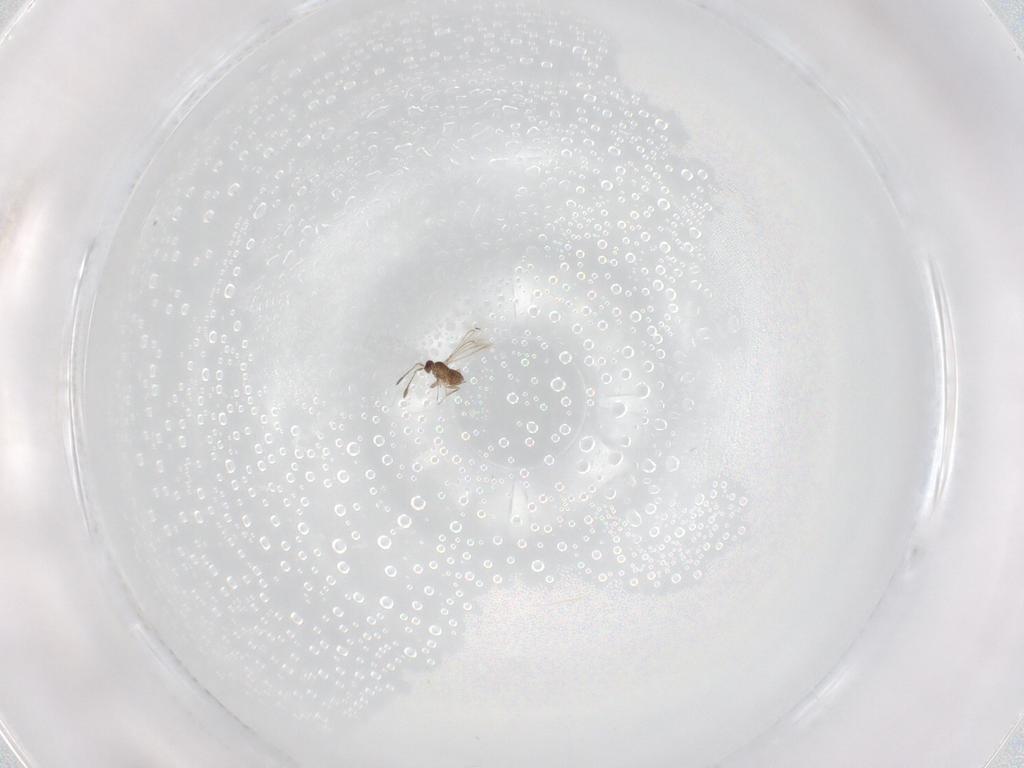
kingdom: Animalia
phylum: Arthropoda
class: Insecta
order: Hymenoptera
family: Mymaridae
